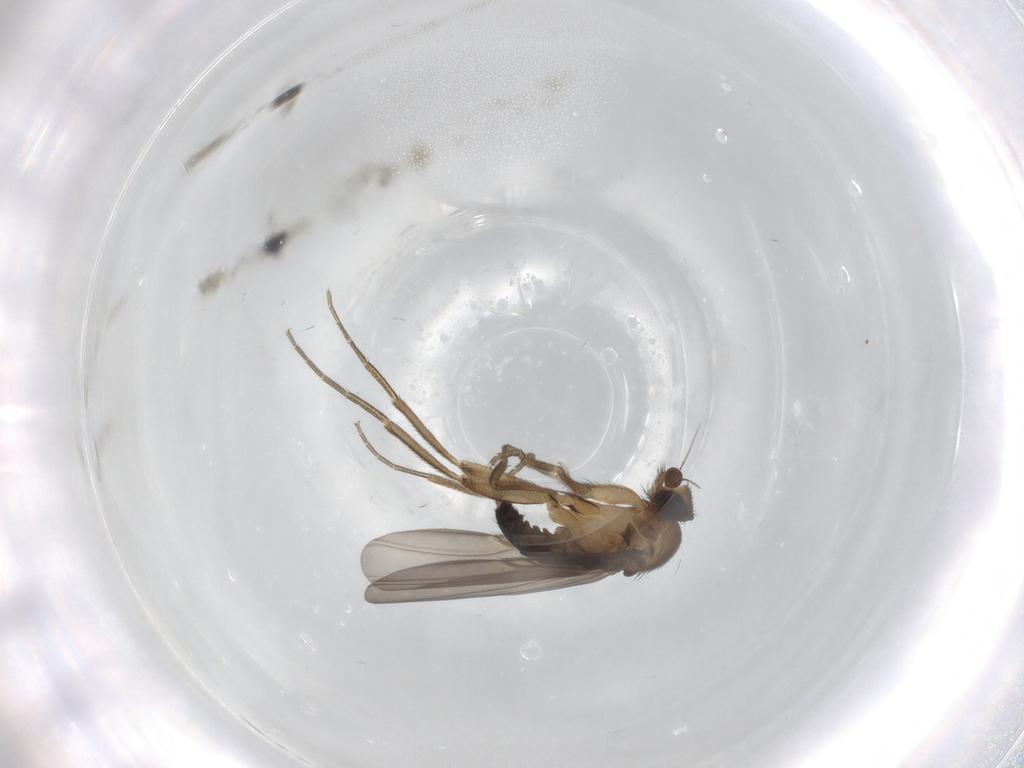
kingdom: Animalia
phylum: Arthropoda
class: Insecta
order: Diptera
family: Phoridae
